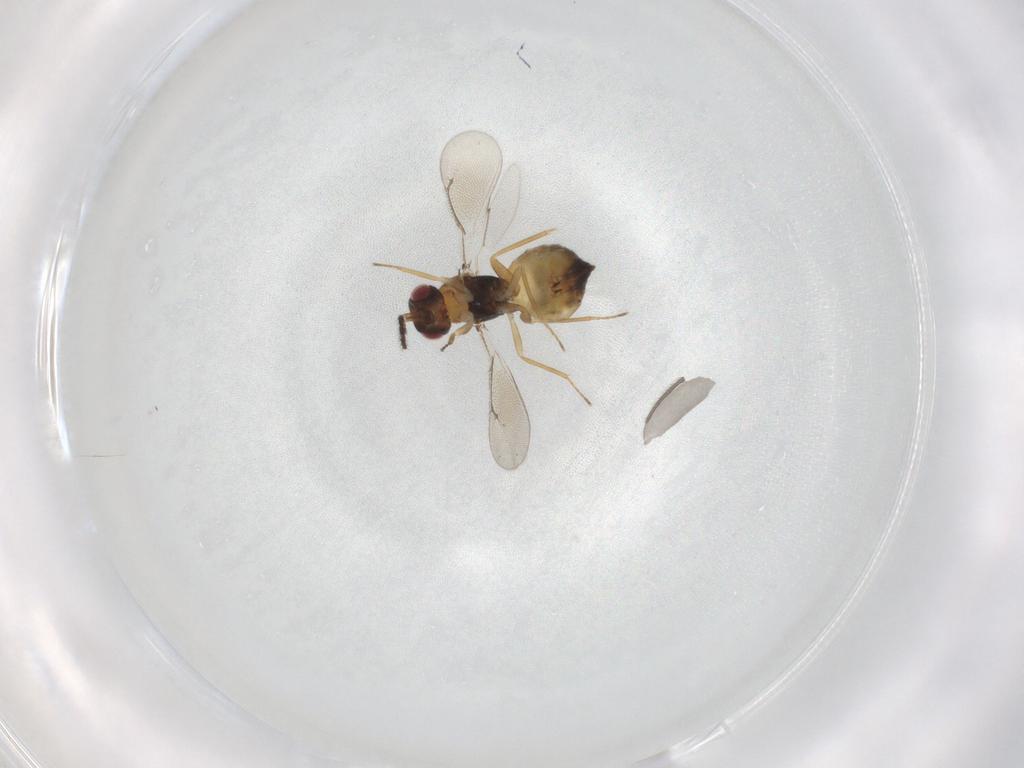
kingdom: Animalia
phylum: Arthropoda
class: Insecta
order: Hymenoptera
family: Eulophidae
